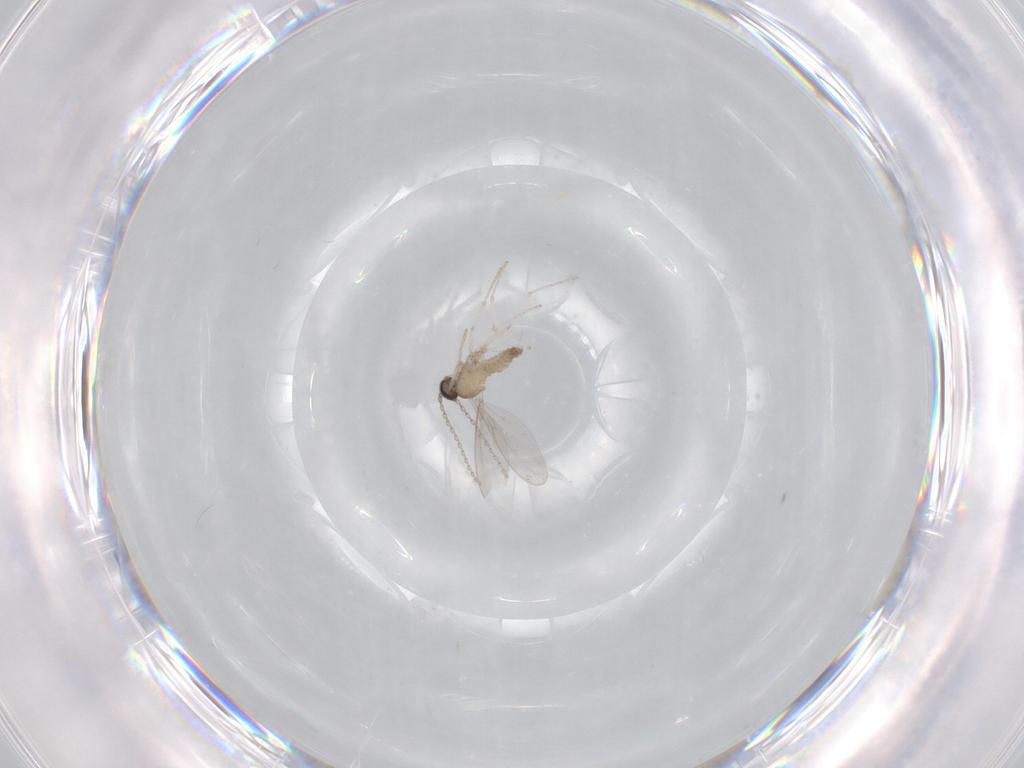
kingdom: Animalia
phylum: Arthropoda
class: Insecta
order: Diptera
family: Cecidomyiidae
